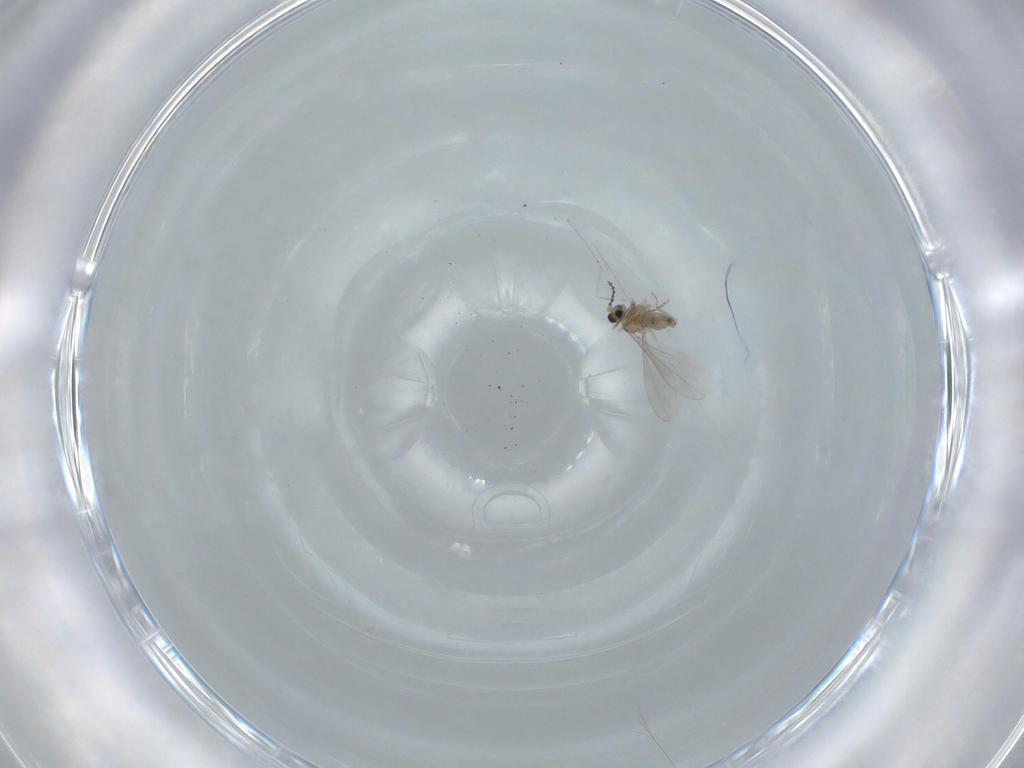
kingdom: Animalia
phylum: Arthropoda
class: Insecta
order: Diptera
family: Cecidomyiidae
